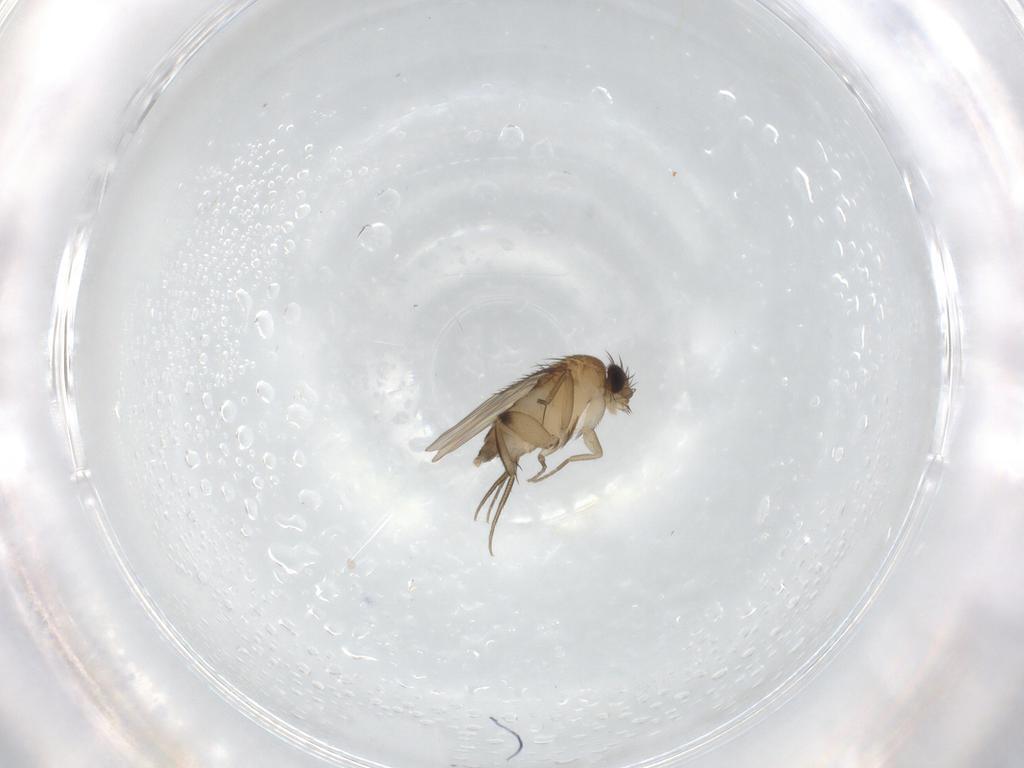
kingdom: Animalia
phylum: Arthropoda
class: Insecta
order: Diptera
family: Phoridae
